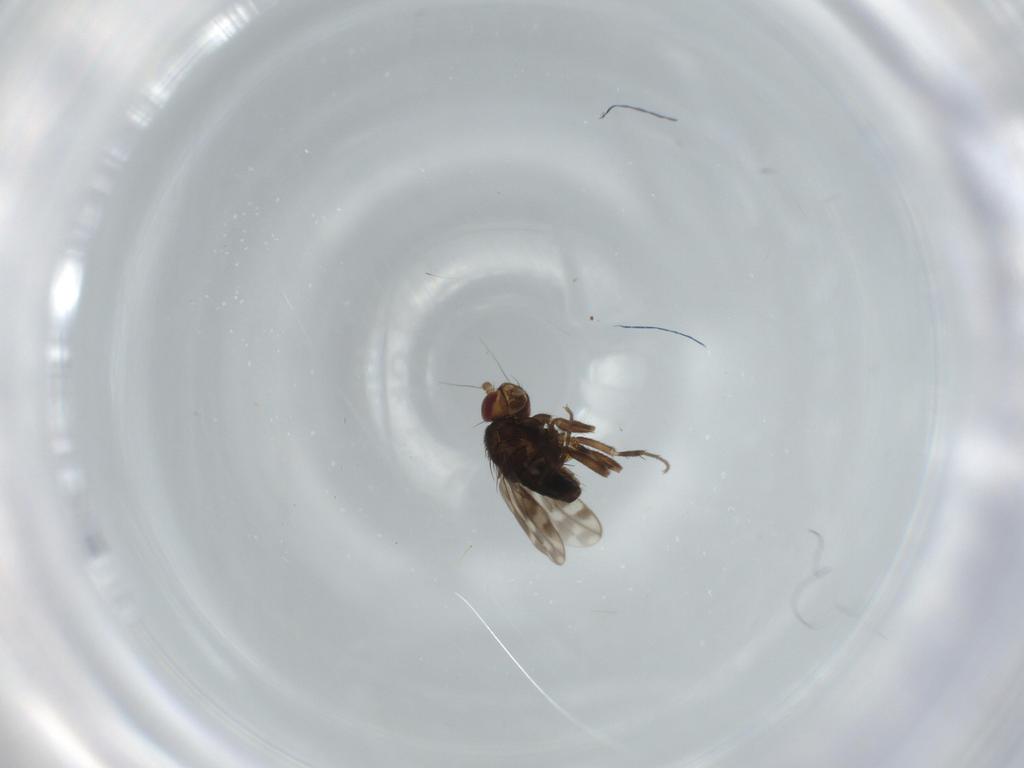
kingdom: Animalia
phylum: Arthropoda
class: Insecta
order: Diptera
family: Sphaeroceridae
